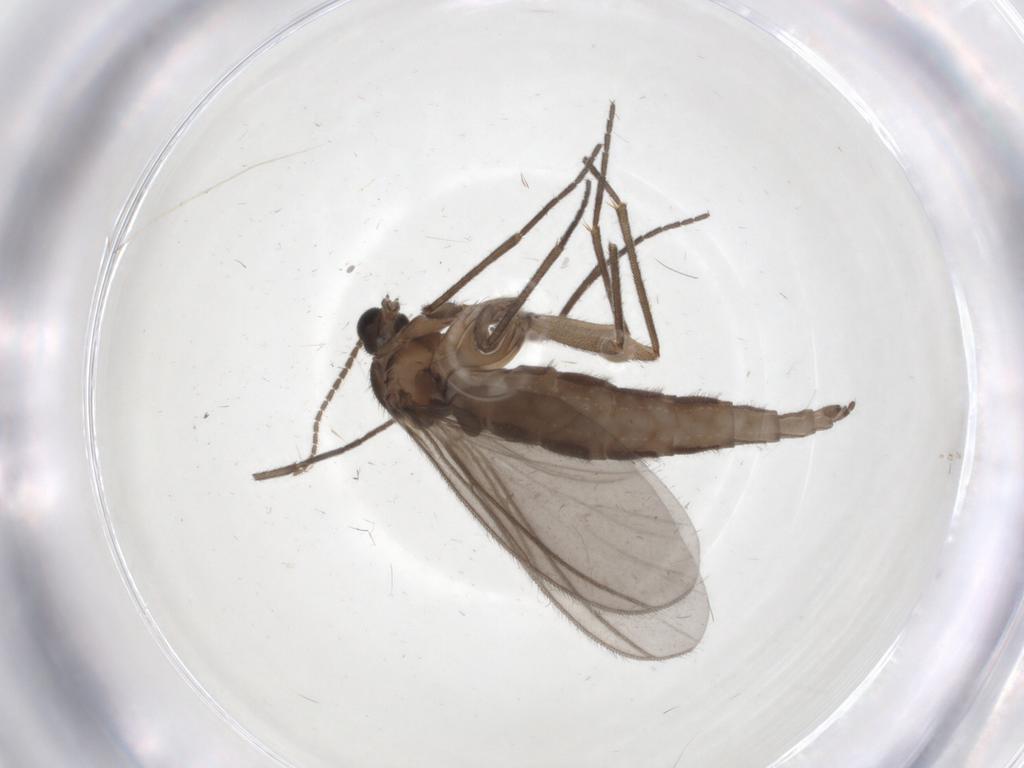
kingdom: Animalia
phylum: Arthropoda
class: Insecta
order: Diptera
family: Sciaridae
